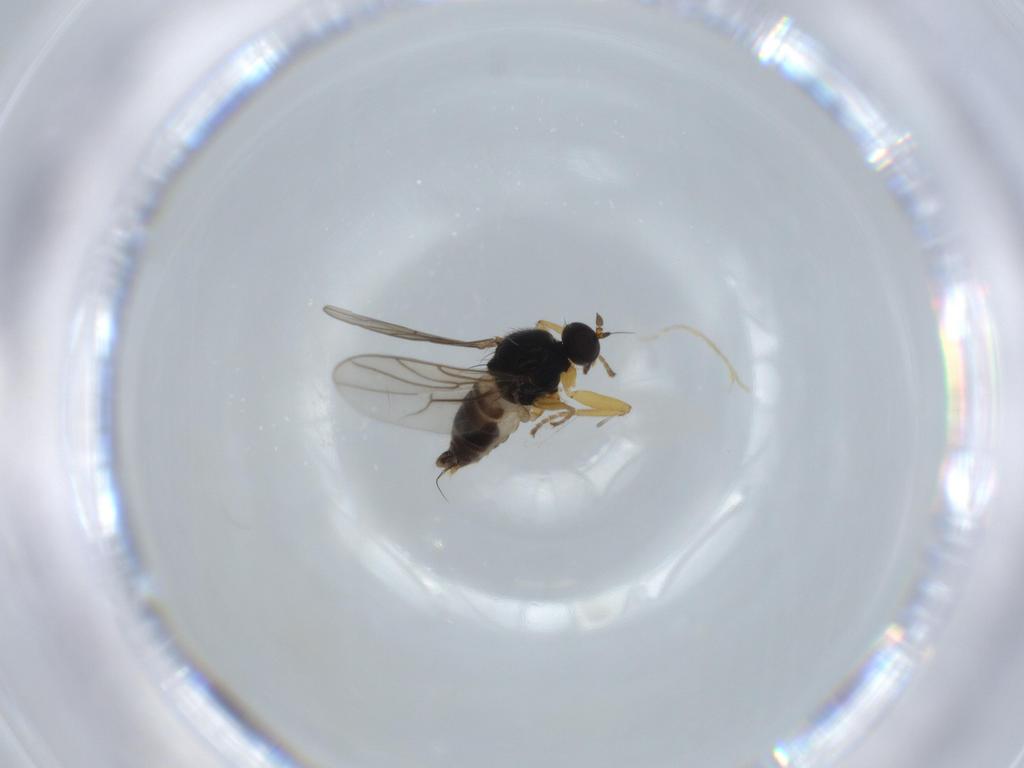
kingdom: Animalia
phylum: Arthropoda
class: Insecta
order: Diptera
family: Hybotidae
